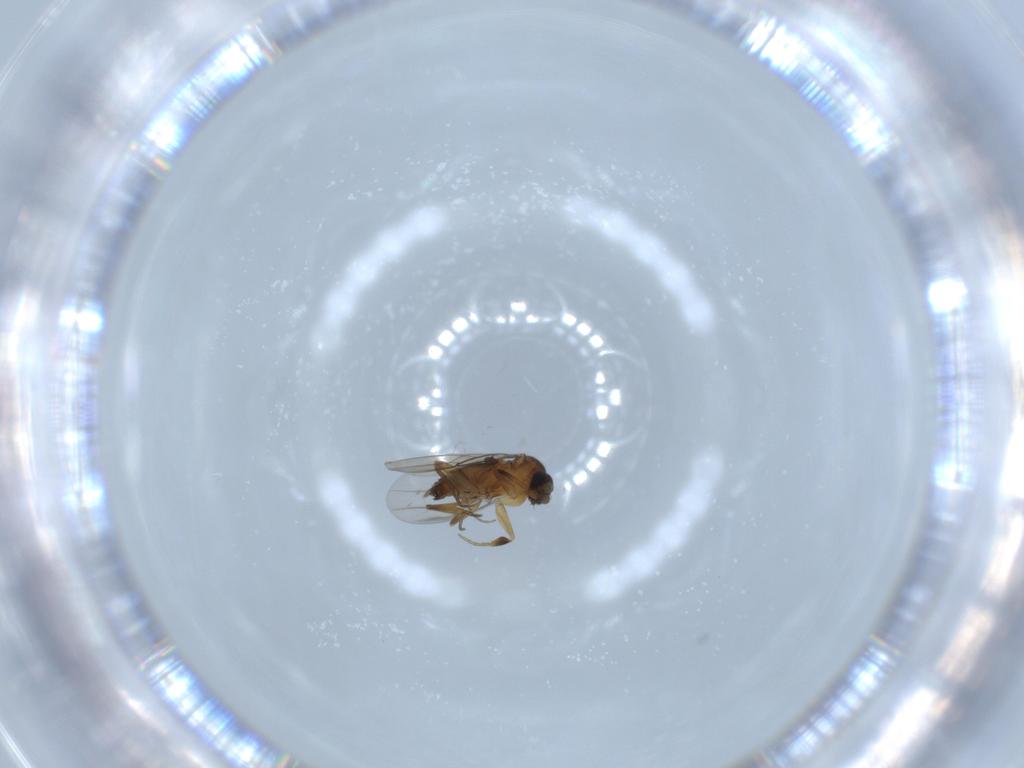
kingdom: Animalia
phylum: Arthropoda
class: Insecta
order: Diptera
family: Phoridae
